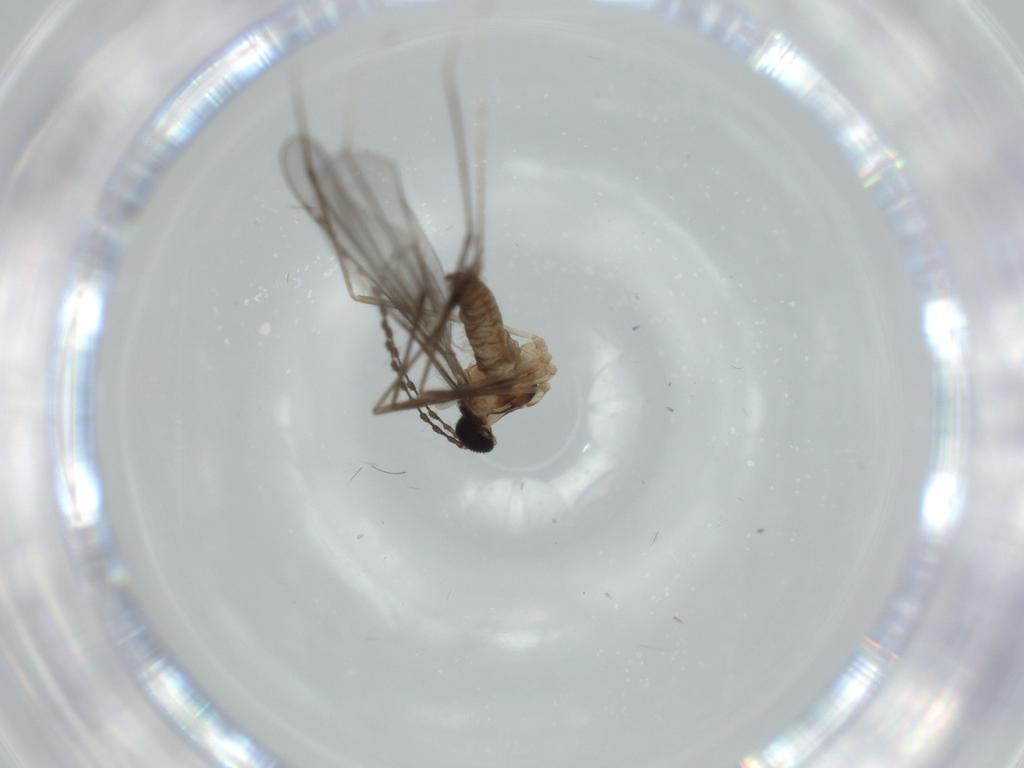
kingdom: Animalia
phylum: Arthropoda
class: Insecta
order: Diptera
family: Cecidomyiidae
